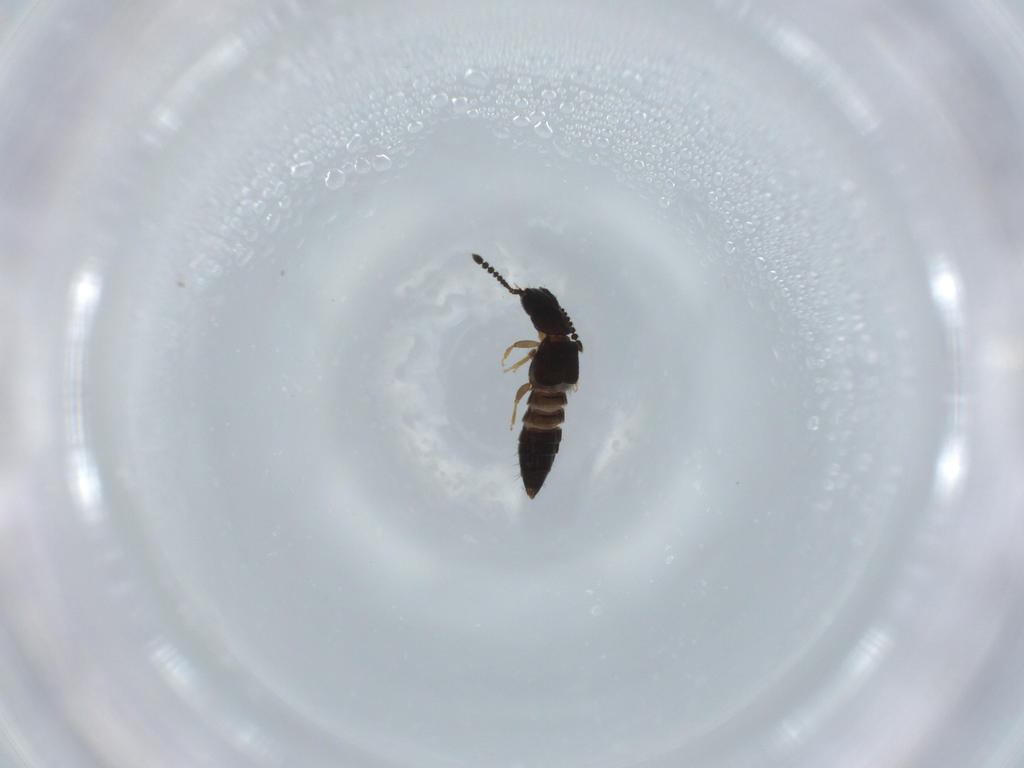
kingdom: Animalia
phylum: Arthropoda
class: Insecta
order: Coleoptera
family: Staphylinidae
